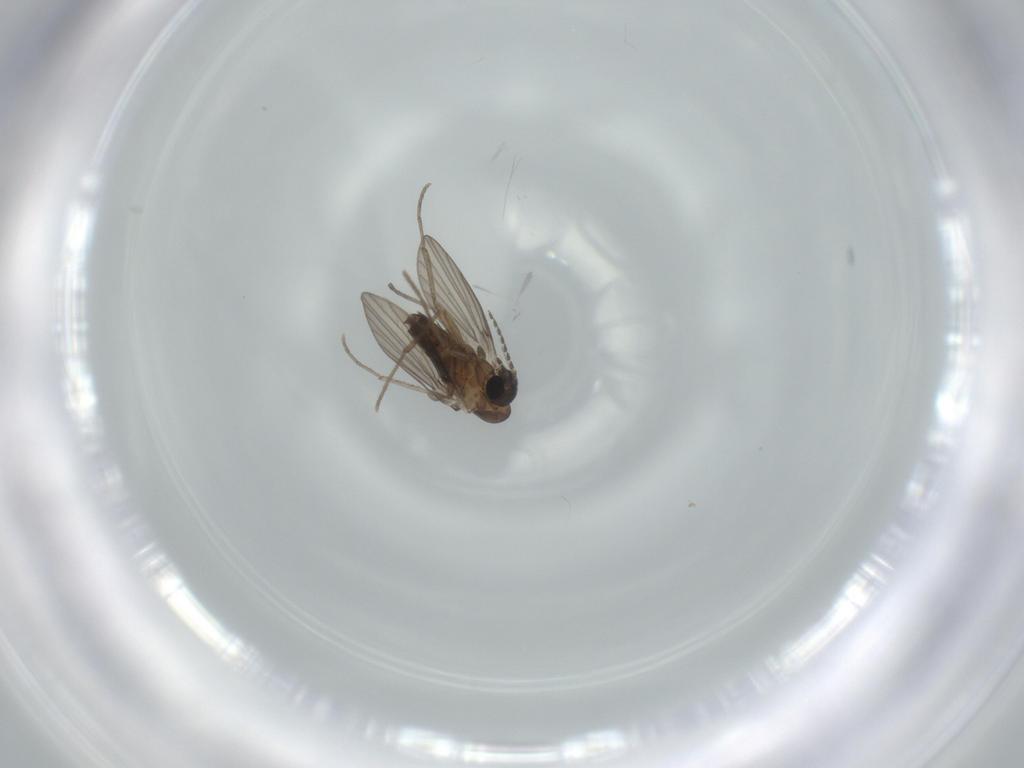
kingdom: Animalia
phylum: Arthropoda
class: Insecta
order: Diptera
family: Psychodidae
